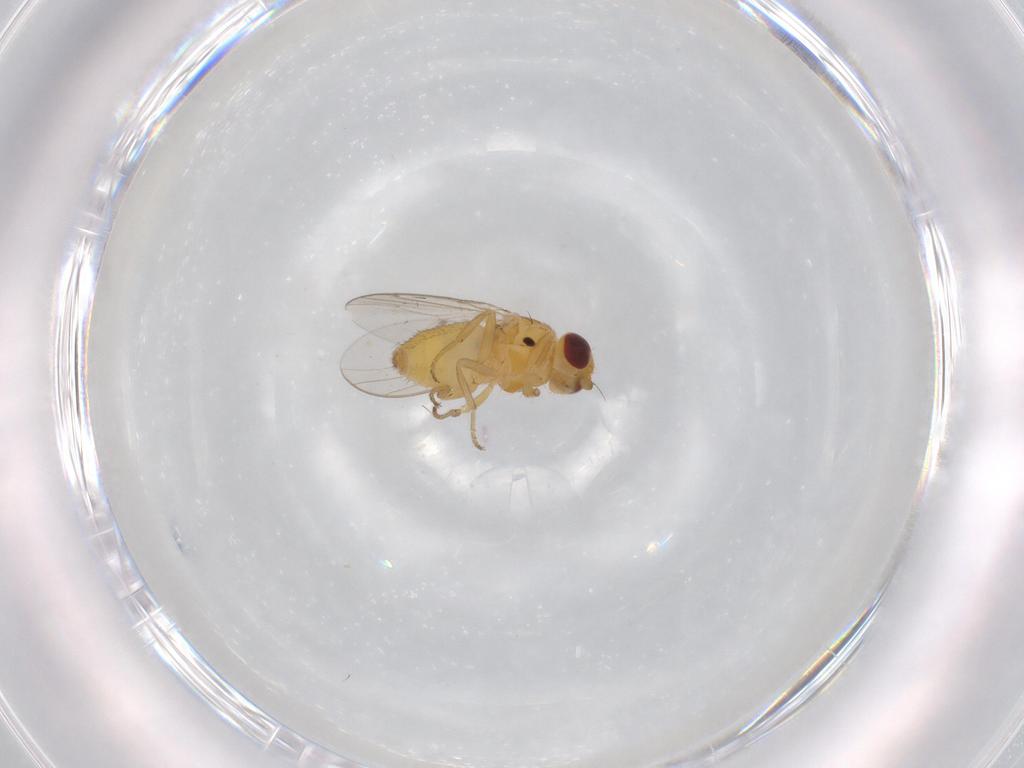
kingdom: Animalia
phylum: Arthropoda
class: Insecta
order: Diptera
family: Chloropidae
